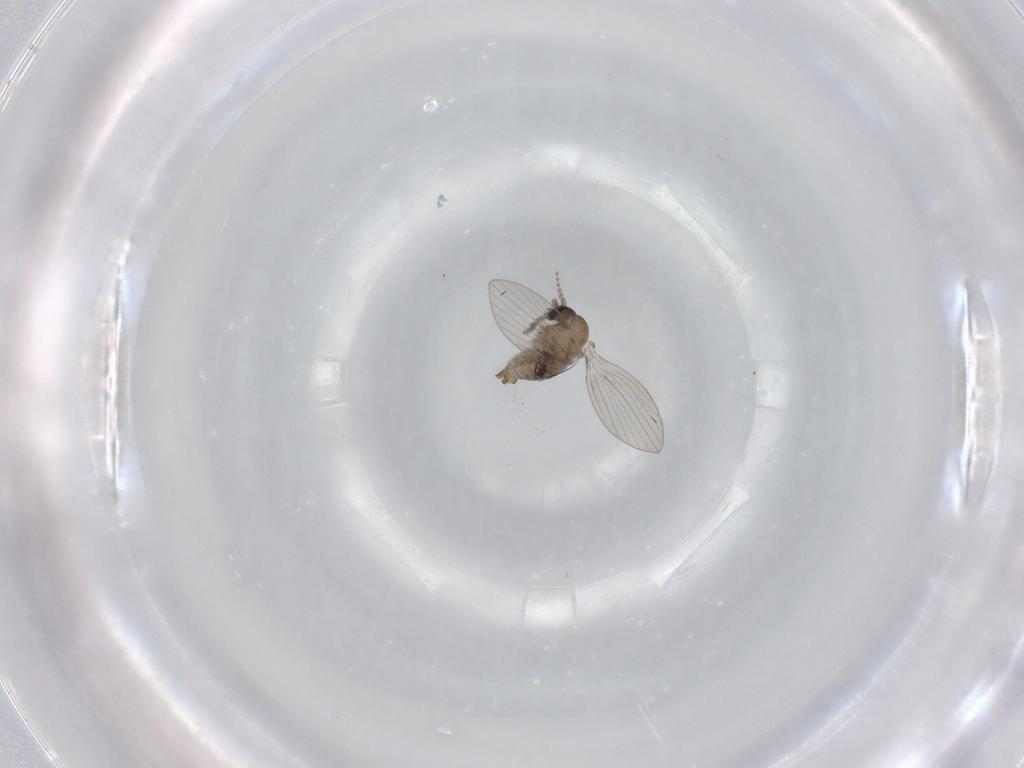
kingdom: Animalia
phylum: Arthropoda
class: Insecta
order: Diptera
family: Psychodidae
